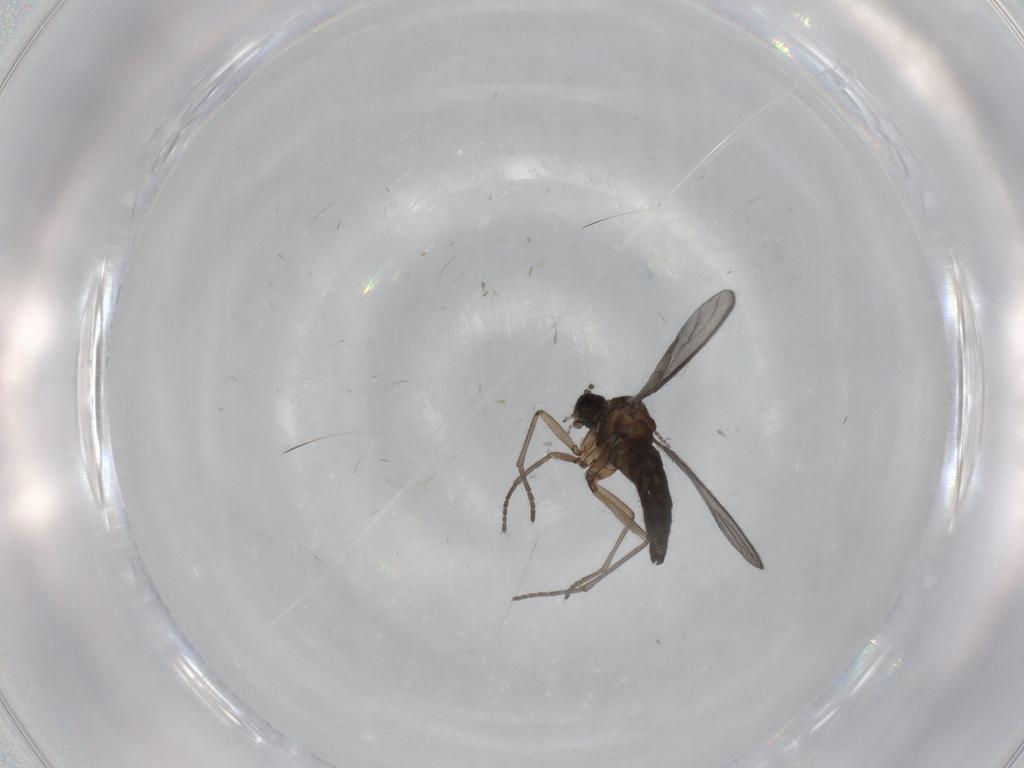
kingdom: Animalia
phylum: Arthropoda
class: Insecta
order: Diptera
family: Sciaridae
